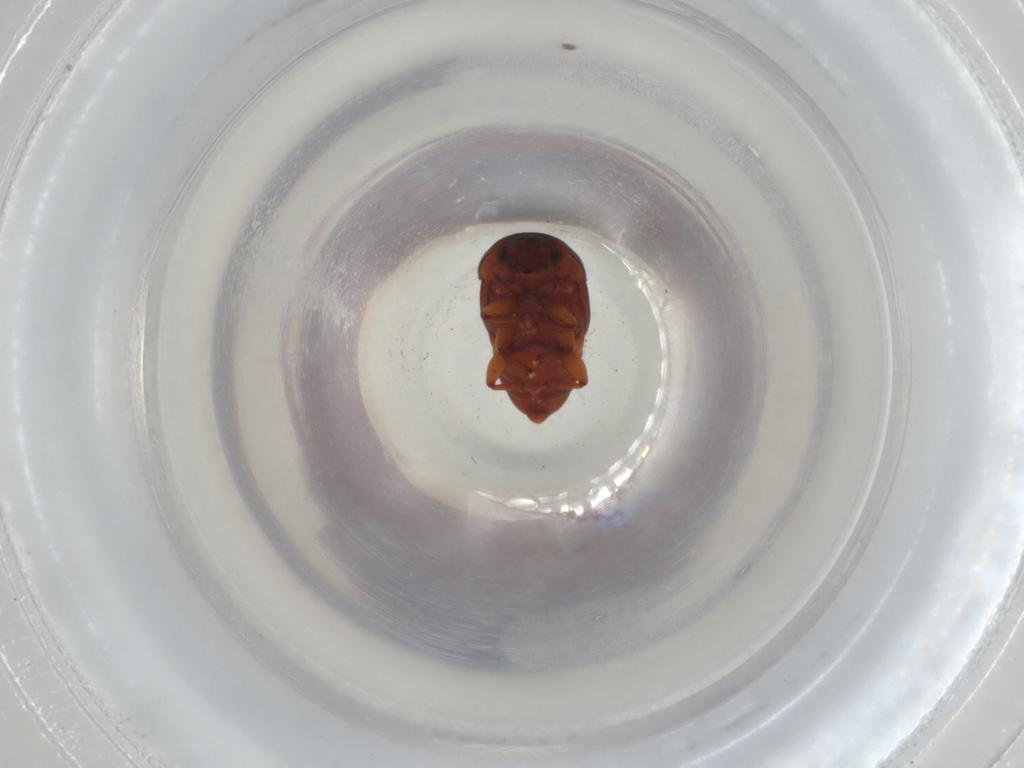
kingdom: Animalia
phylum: Arthropoda
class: Insecta
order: Coleoptera
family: Nitidulidae
